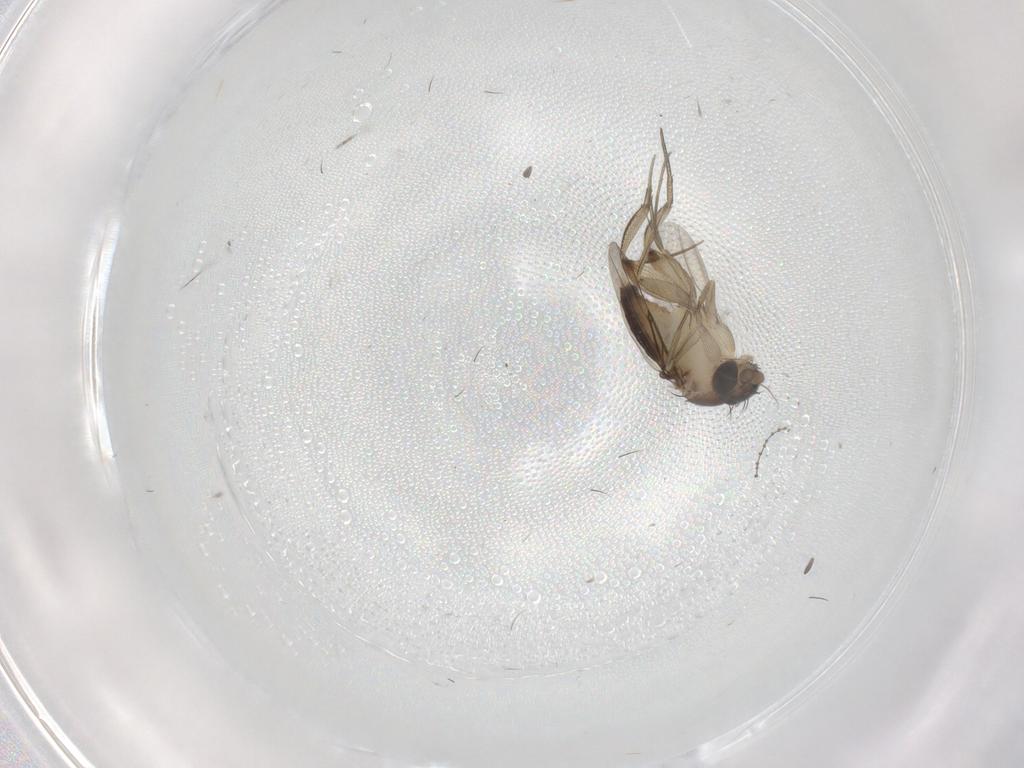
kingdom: Animalia
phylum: Arthropoda
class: Insecta
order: Diptera
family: Phoridae
